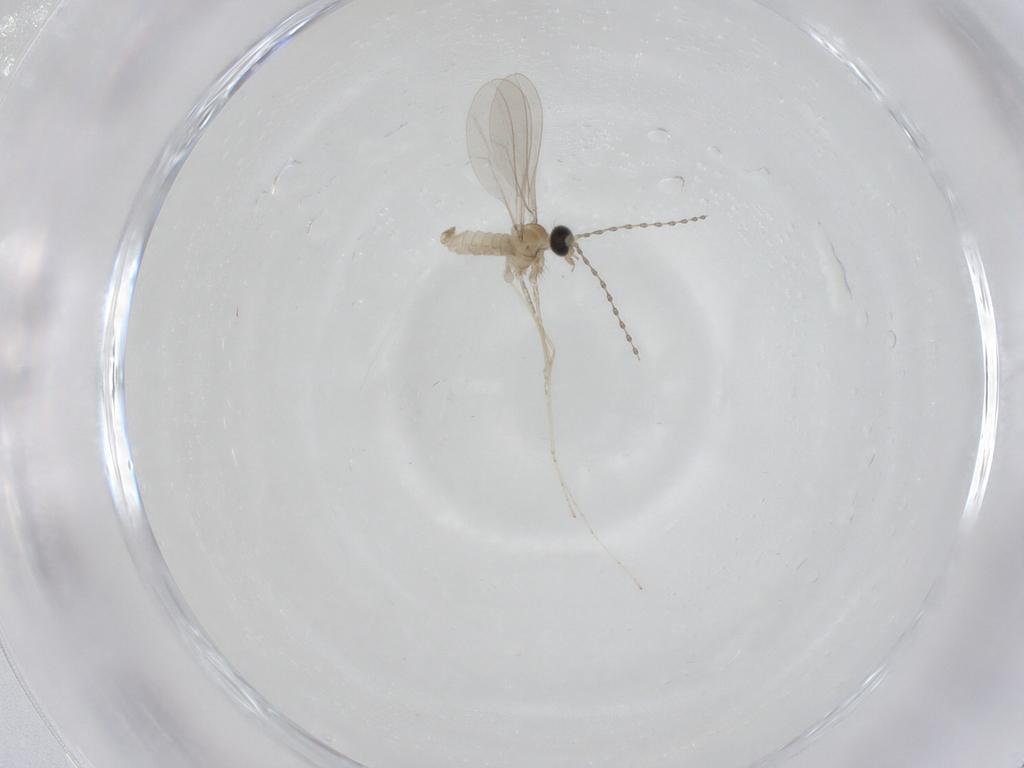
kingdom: Animalia
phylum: Arthropoda
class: Insecta
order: Diptera
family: Cecidomyiidae
